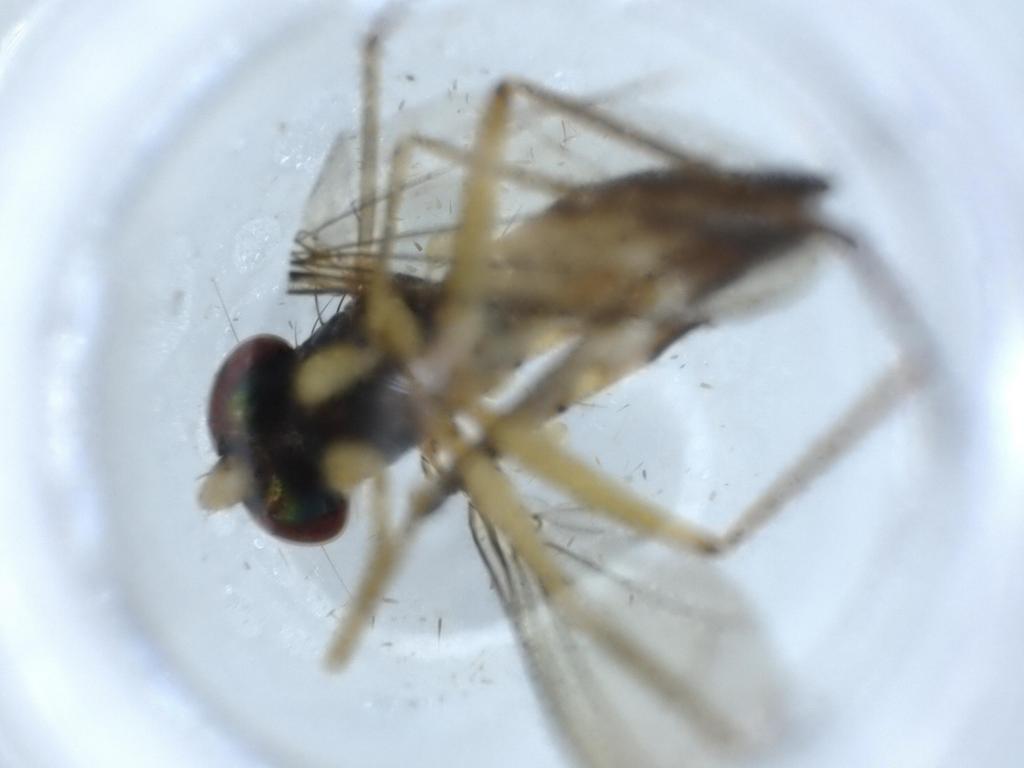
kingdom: Animalia
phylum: Arthropoda
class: Insecta
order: Diptera
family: Dolichopodidae
